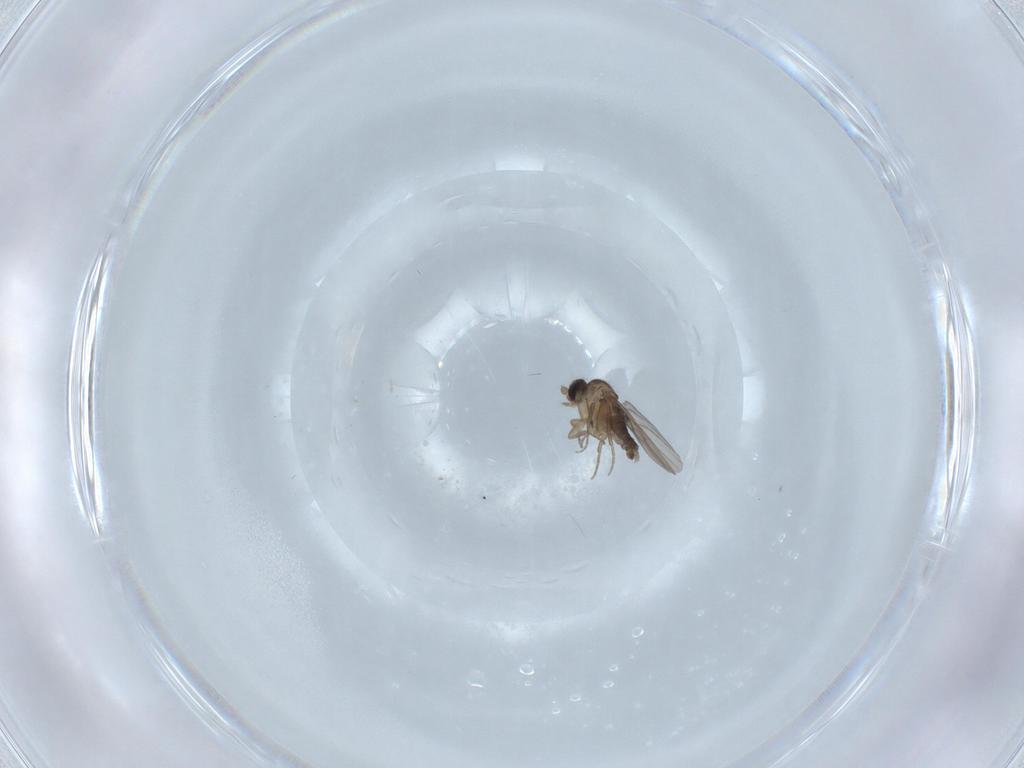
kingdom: Animalia
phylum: Arthropoda
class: Insecta
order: Diptera
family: Phoridae
